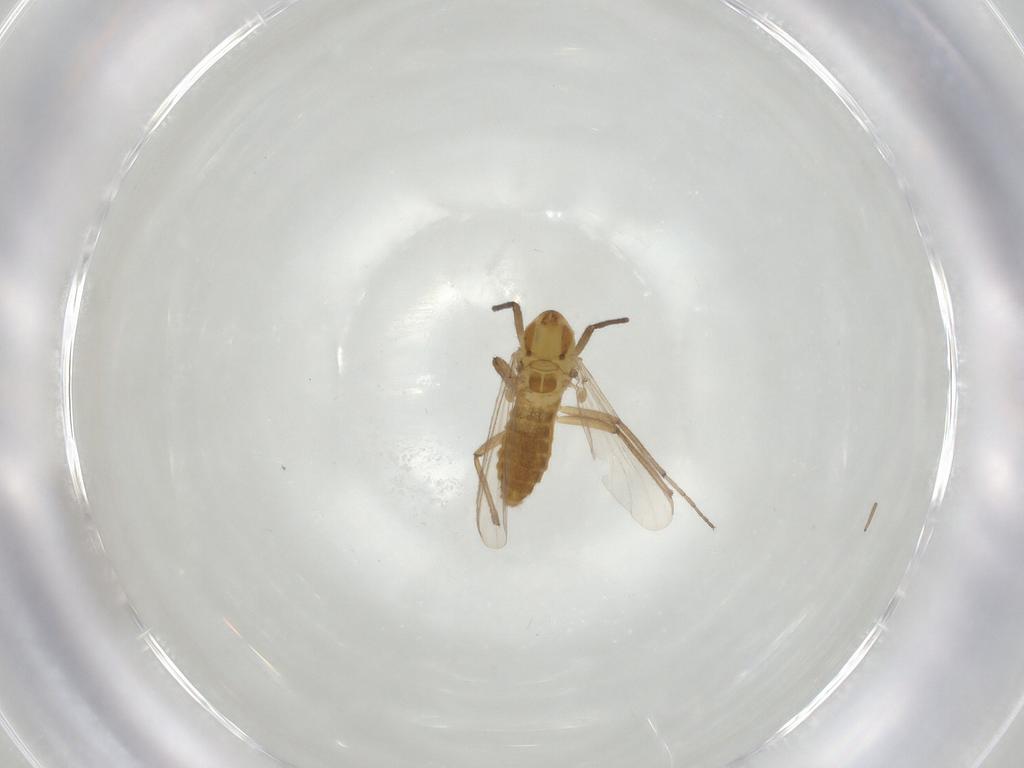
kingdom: Animalia
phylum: Arthropoda
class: Insecta
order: Diptera
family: Sciaridae
